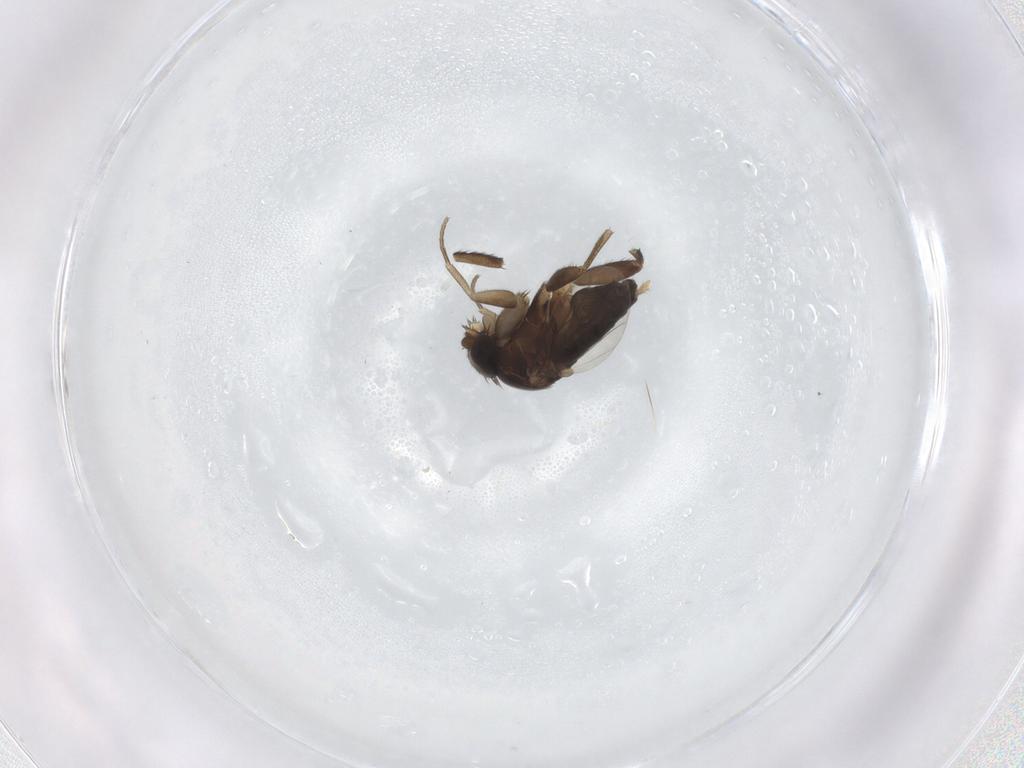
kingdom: Animalia
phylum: Arthropoda
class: Insecta
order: Diptera
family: Phoridae
